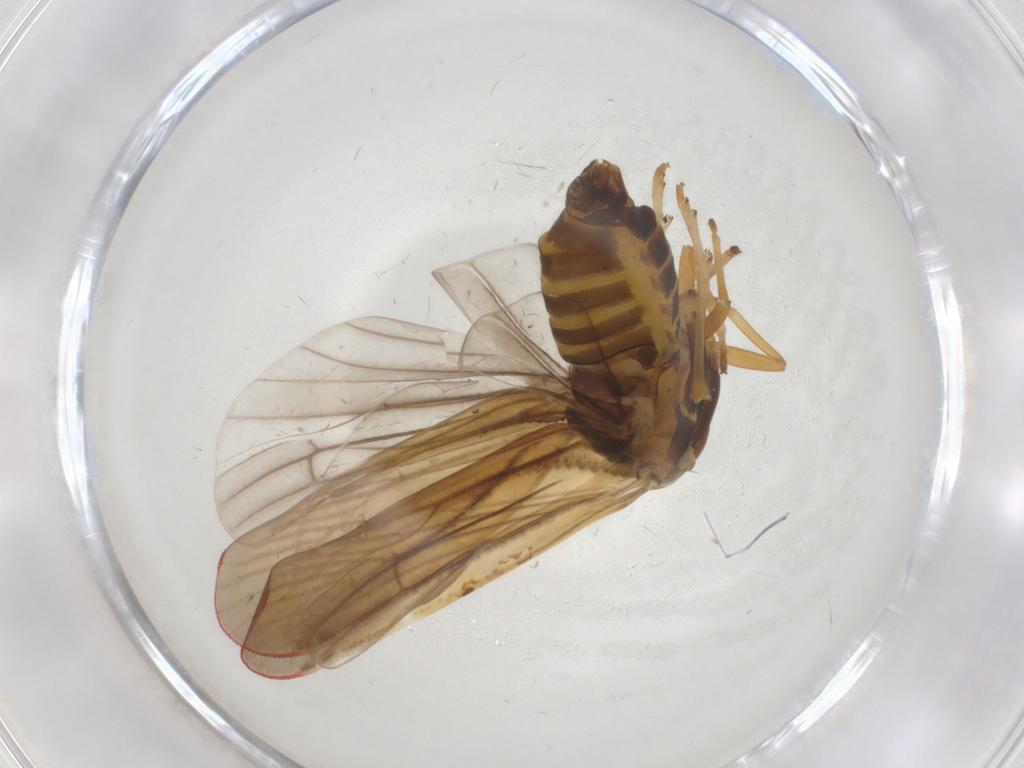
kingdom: Animalia
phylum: Arthropoda
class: Insecta
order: Hemiptera
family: Derbidae
